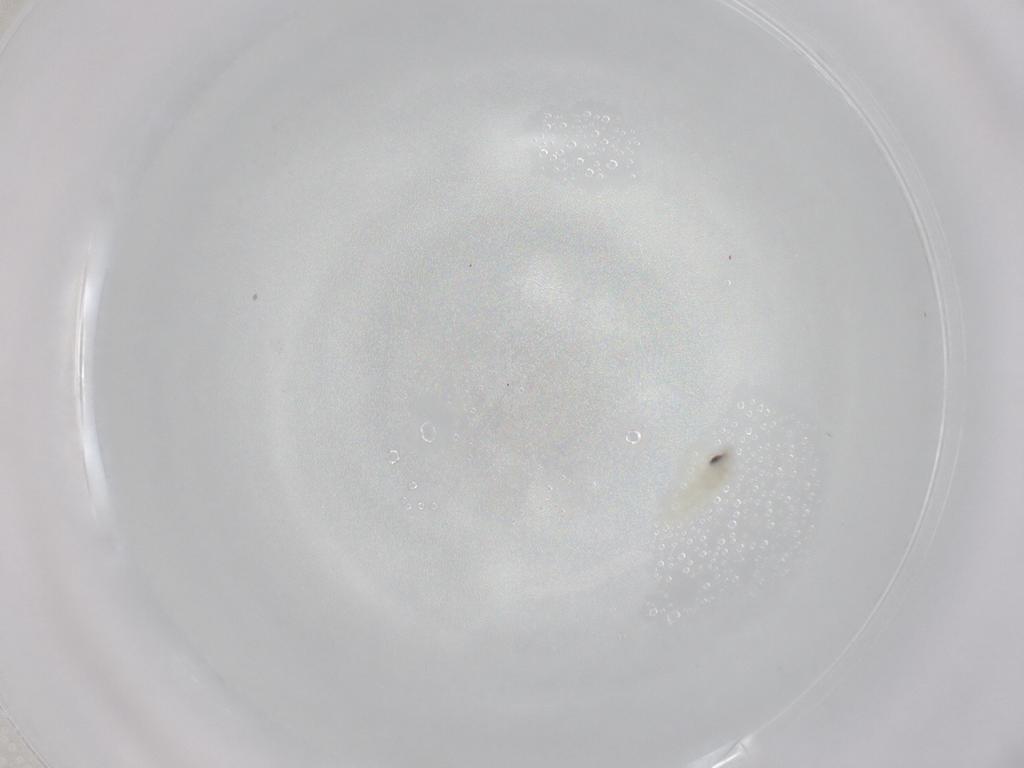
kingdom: Animalia
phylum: Arthropoda
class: Insecta
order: Hemiptera
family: Aleyrodidae
